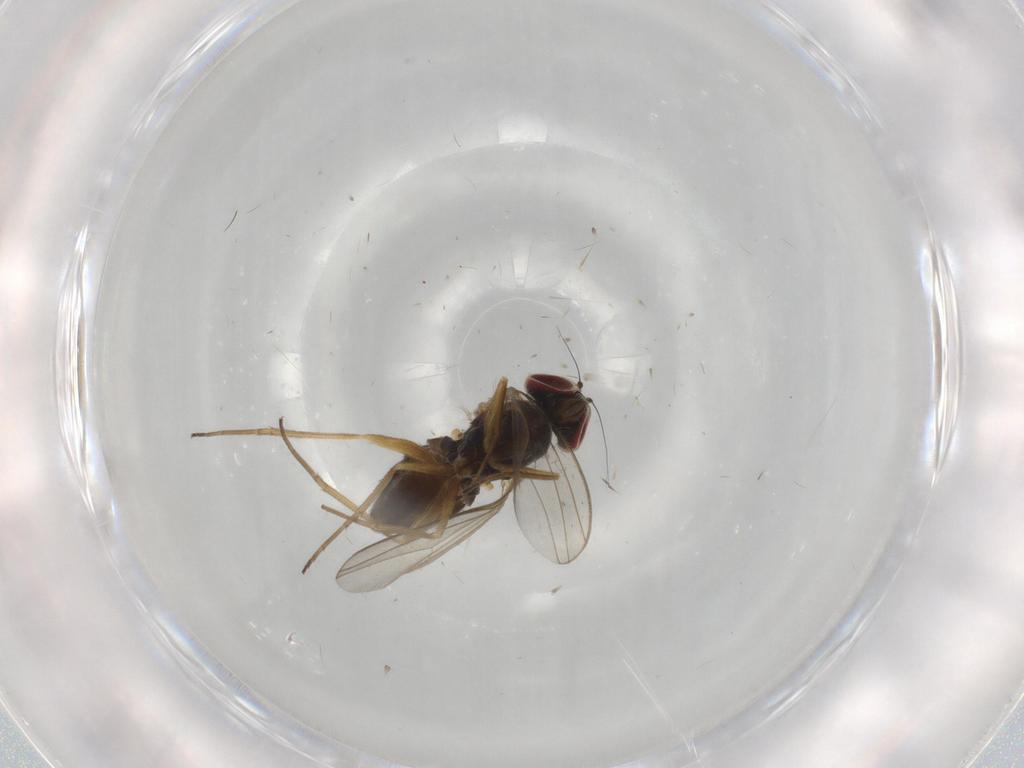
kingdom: Animalia
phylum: Arthropoda
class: Insecta
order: Diptera
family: Dolichopodidae
